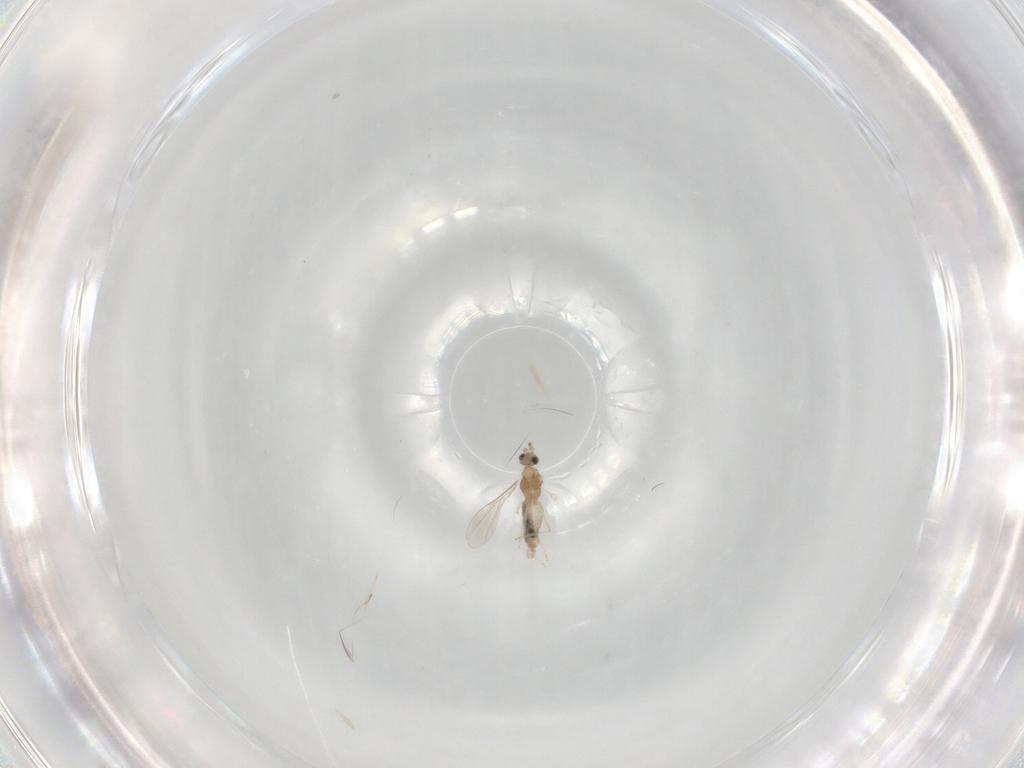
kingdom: Animalia
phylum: Arthropoda
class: Insecta
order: Diptera
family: Cecidomyiidae
